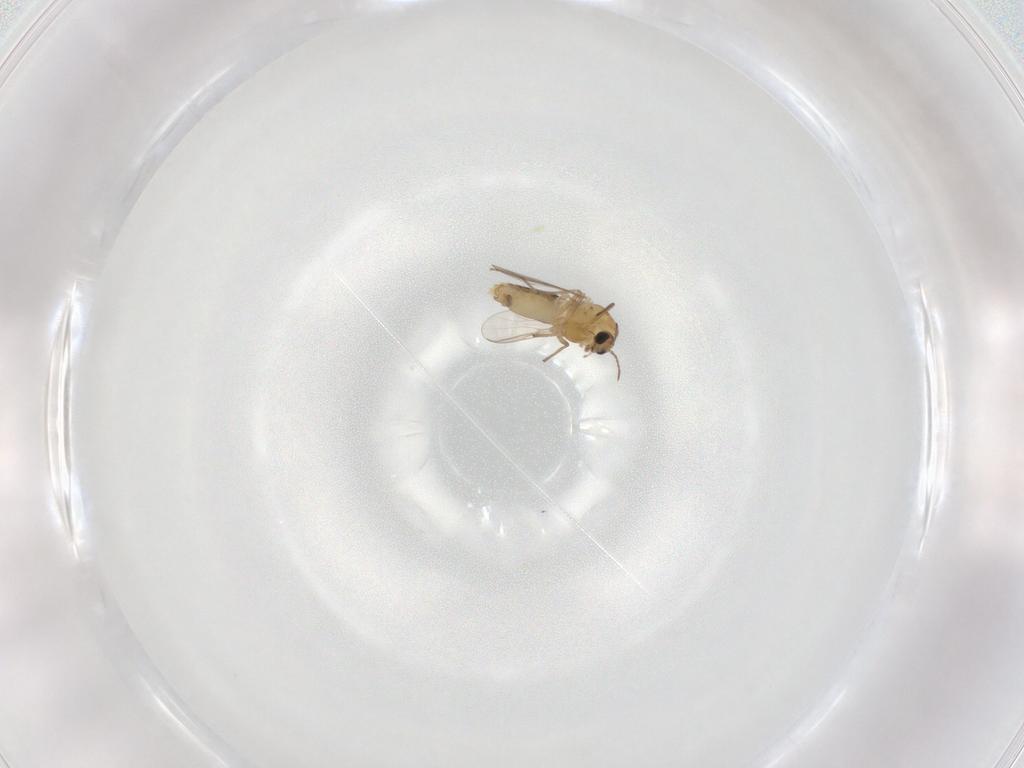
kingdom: Animalia
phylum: Arthropoda
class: Insecta
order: Diptera
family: Chironomidae
